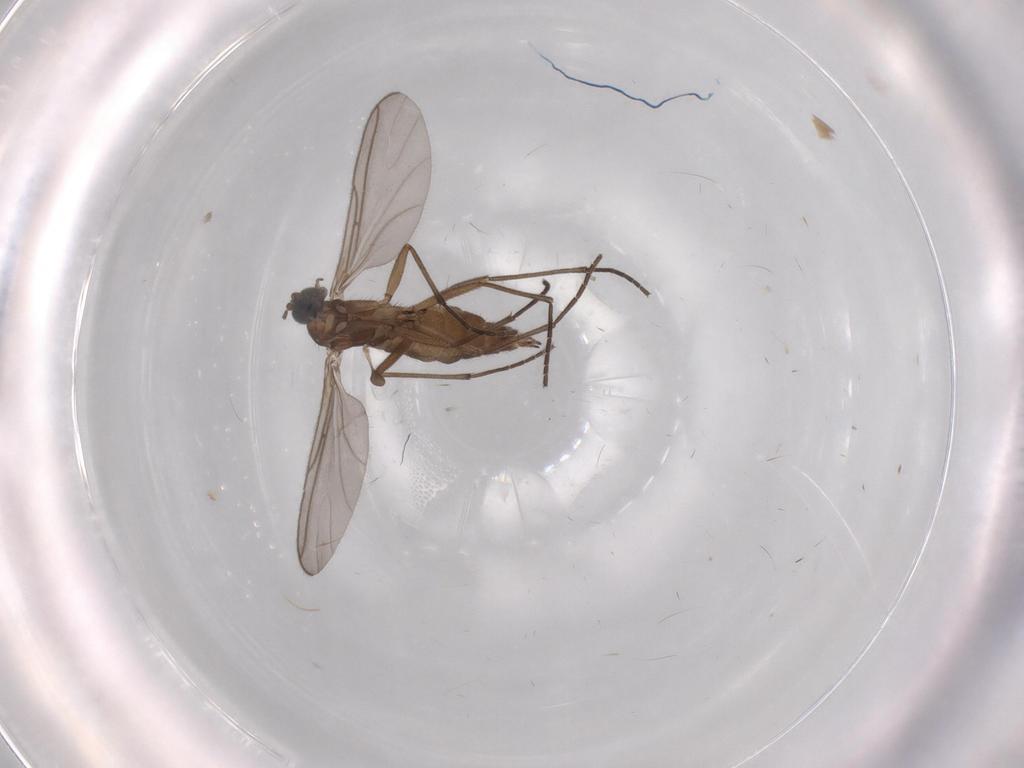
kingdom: Animalia
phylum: Arthropoda
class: Insecta
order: Diptera
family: Sciaridae
